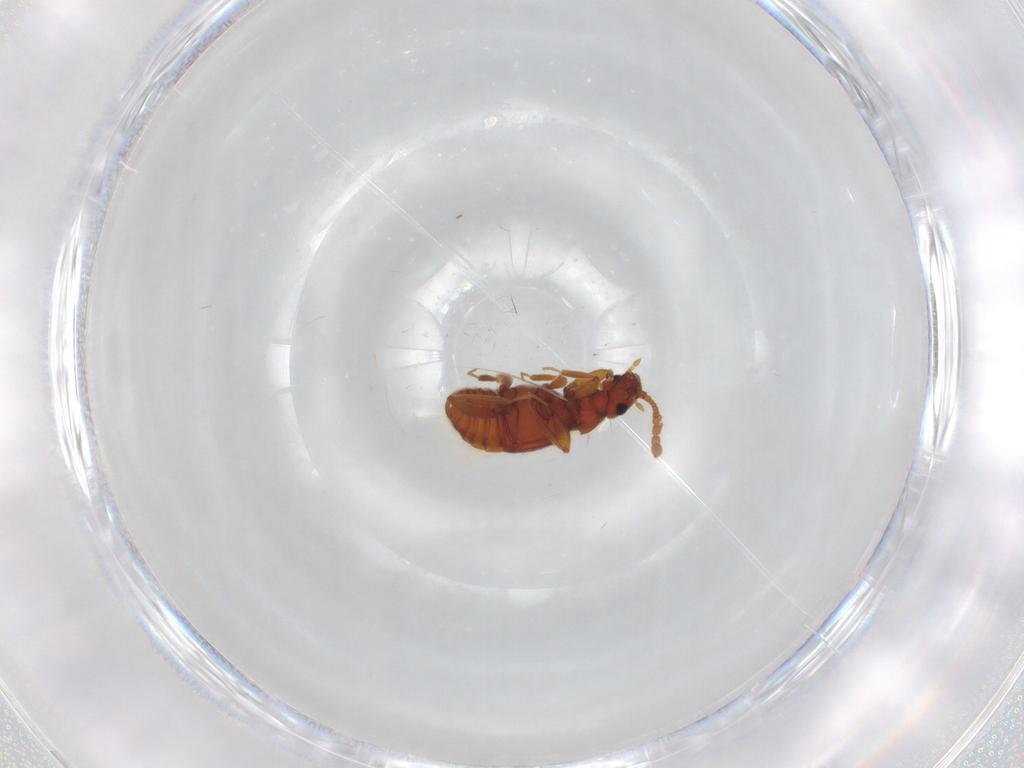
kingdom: Animalia
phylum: Arthropoda
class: Insecta
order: Coleoptera
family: Staphylinidae
